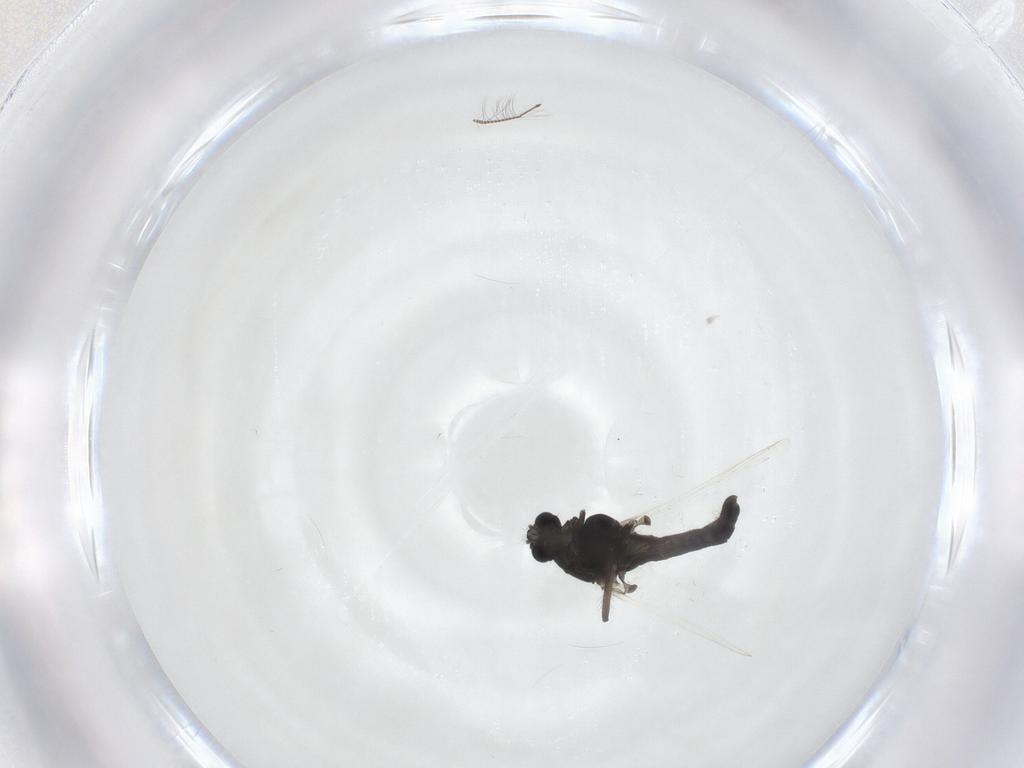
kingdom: Animalia
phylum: Arthropoda
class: Insecta
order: Diptera
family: Chironomidae
